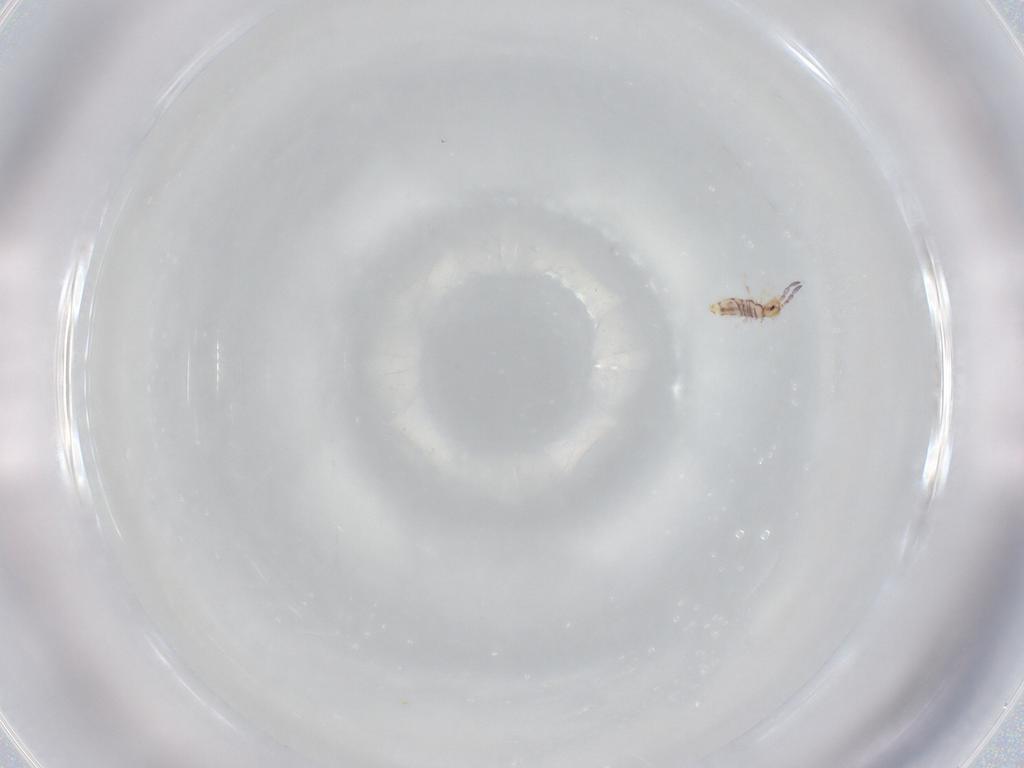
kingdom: Animalia
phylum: Arthropoda
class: Collembola
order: Entomobryomorpha
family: Entomobryidae
